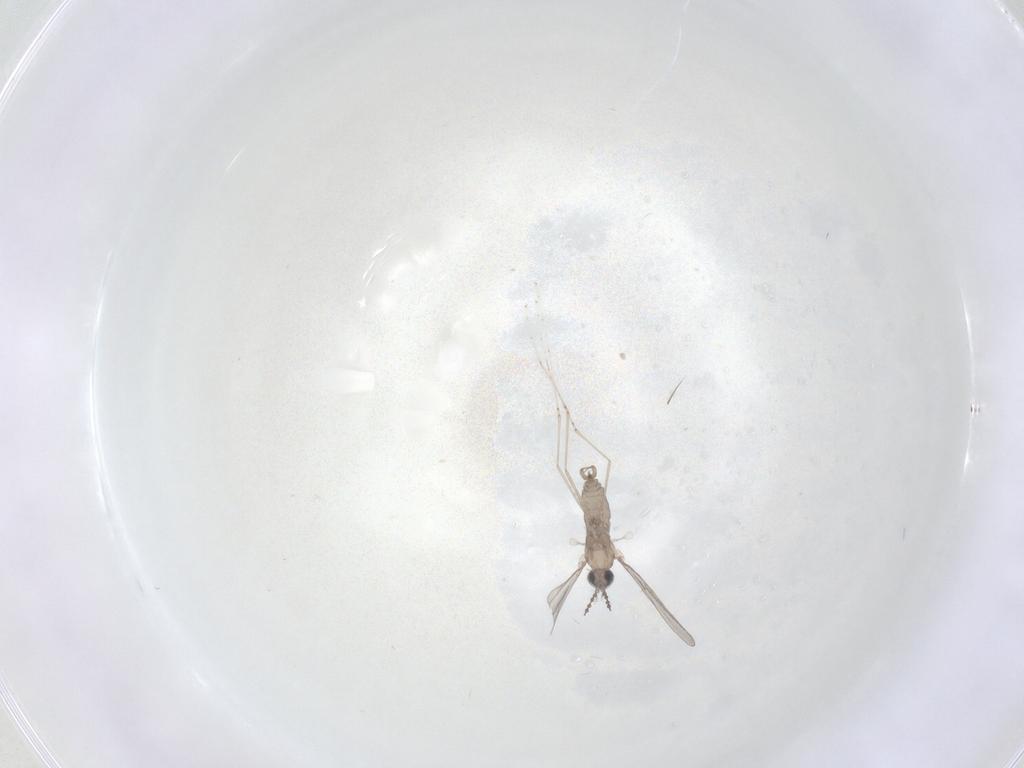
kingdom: Animalia
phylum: Arthropoda
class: Insecta
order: Diptera
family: Cecidomyiidae
